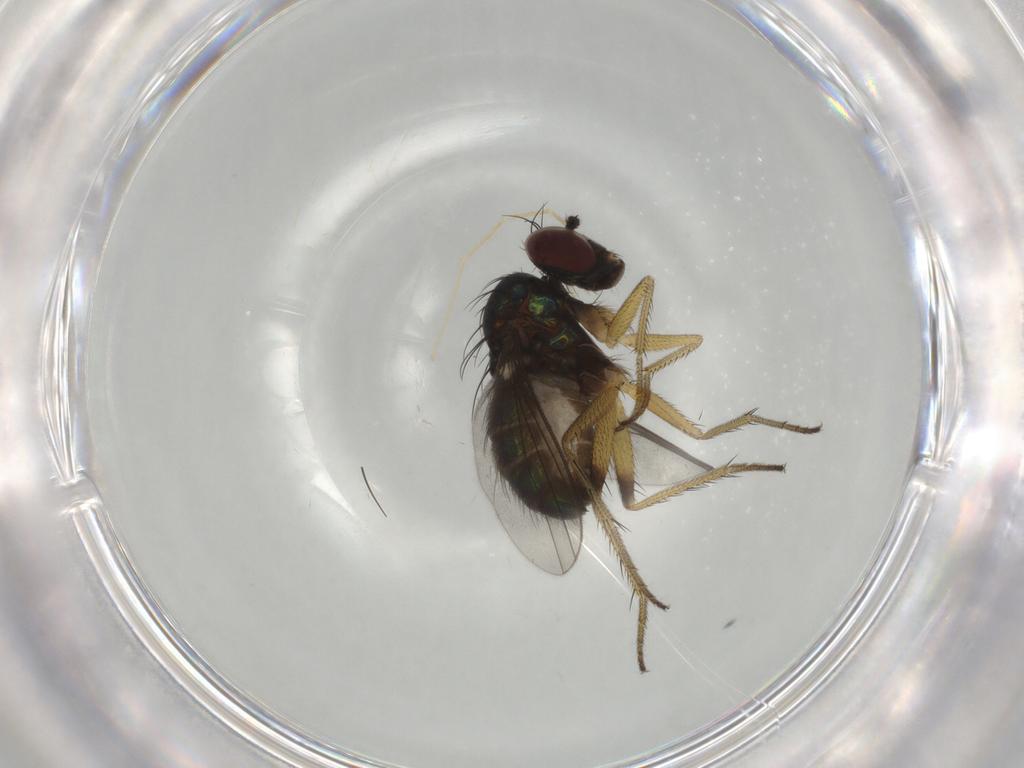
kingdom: Animalia
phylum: Arthropoda
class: Insecta
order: Diptera
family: Dolichopodidae
